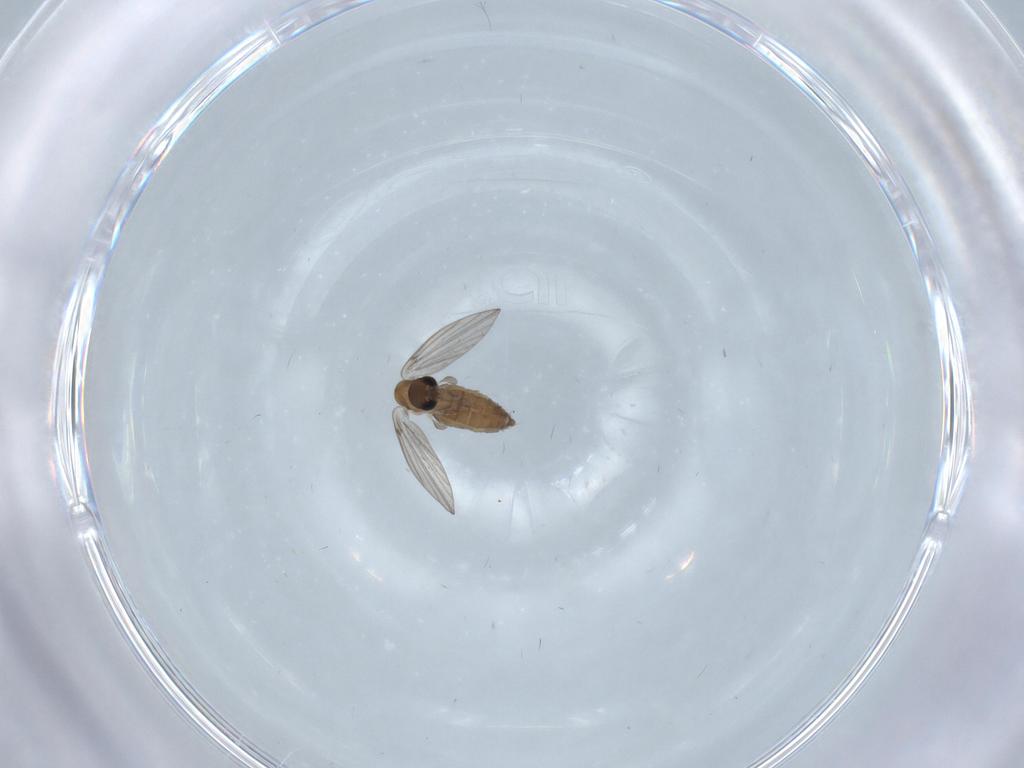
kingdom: Animalia
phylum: Arthropoda
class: Insecta
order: Diptera
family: Psychodidae
